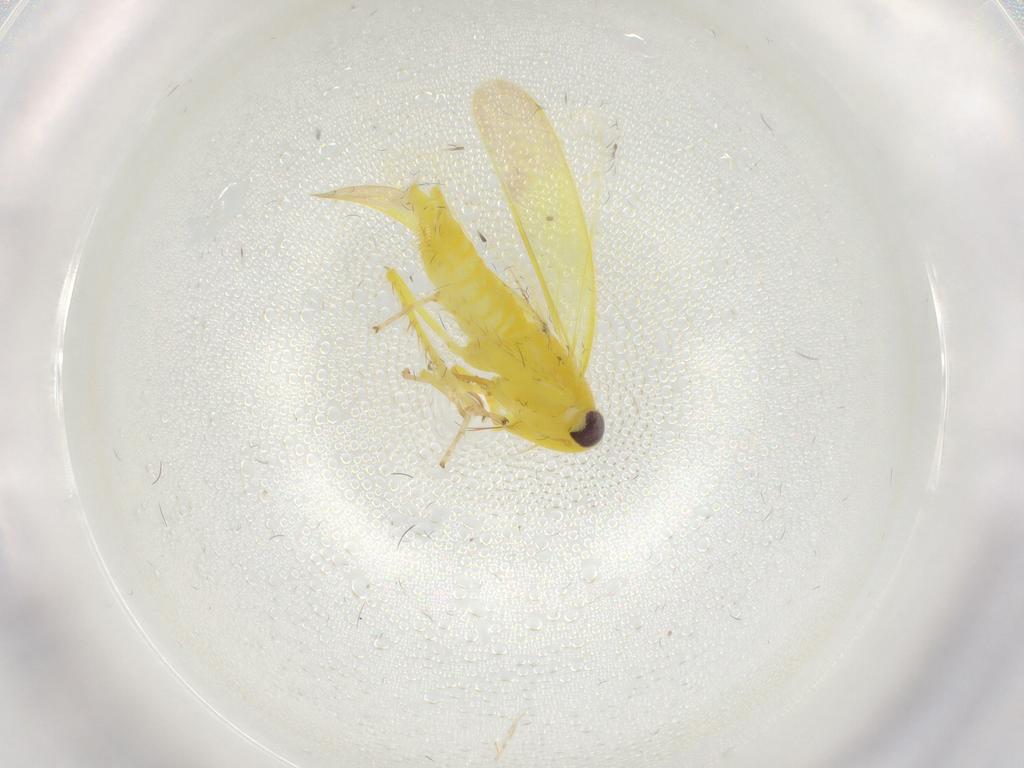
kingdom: Animalia
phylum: Arthropoda
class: Insecta
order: Hemiptera
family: Cicadellidae
